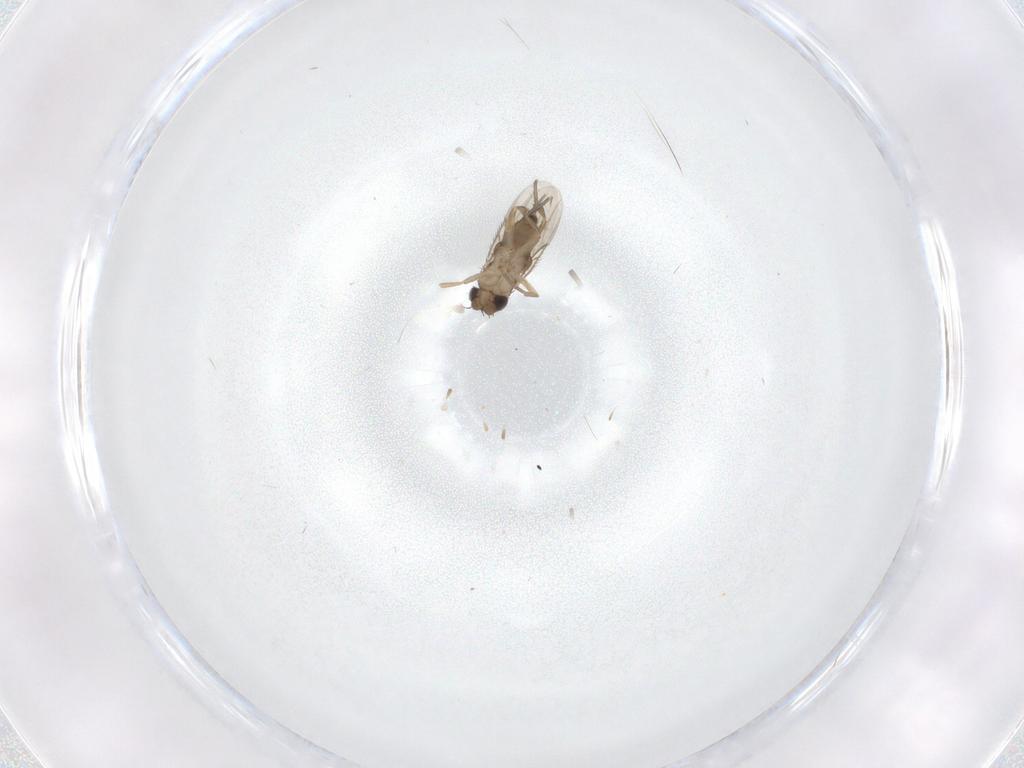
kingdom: Animalia
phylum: Arthropoda
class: Insecta
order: Diptera
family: Phoridae
